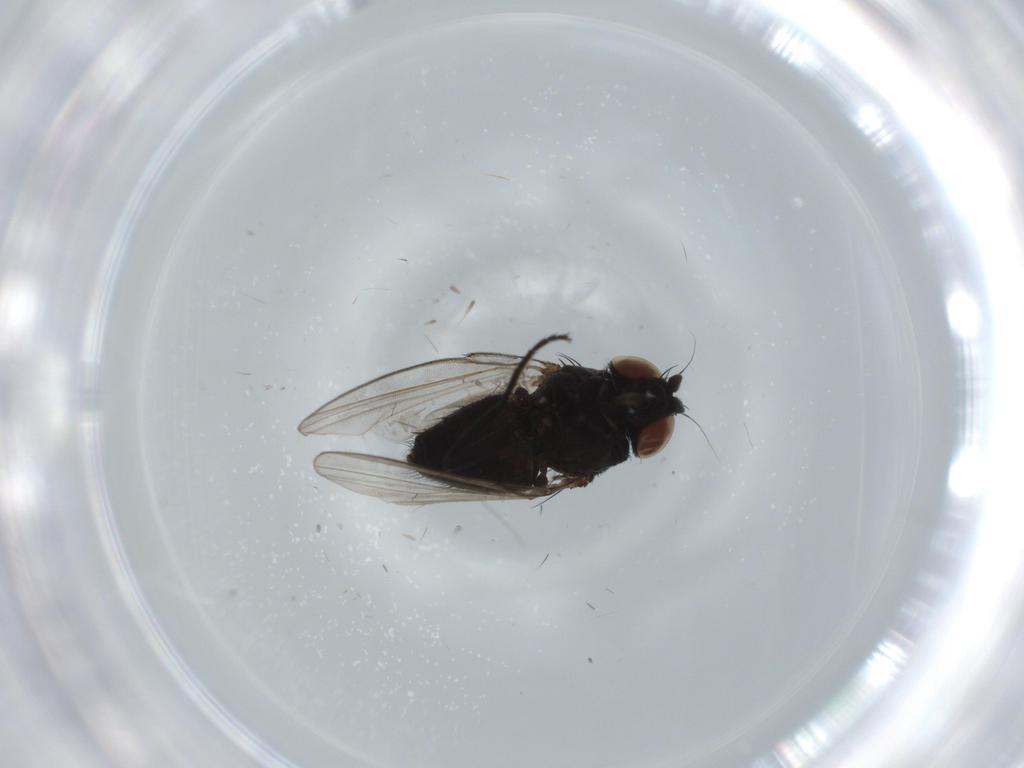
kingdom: Animalia
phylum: Arthropoda
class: Insecta
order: Diptera
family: Milichiidae
